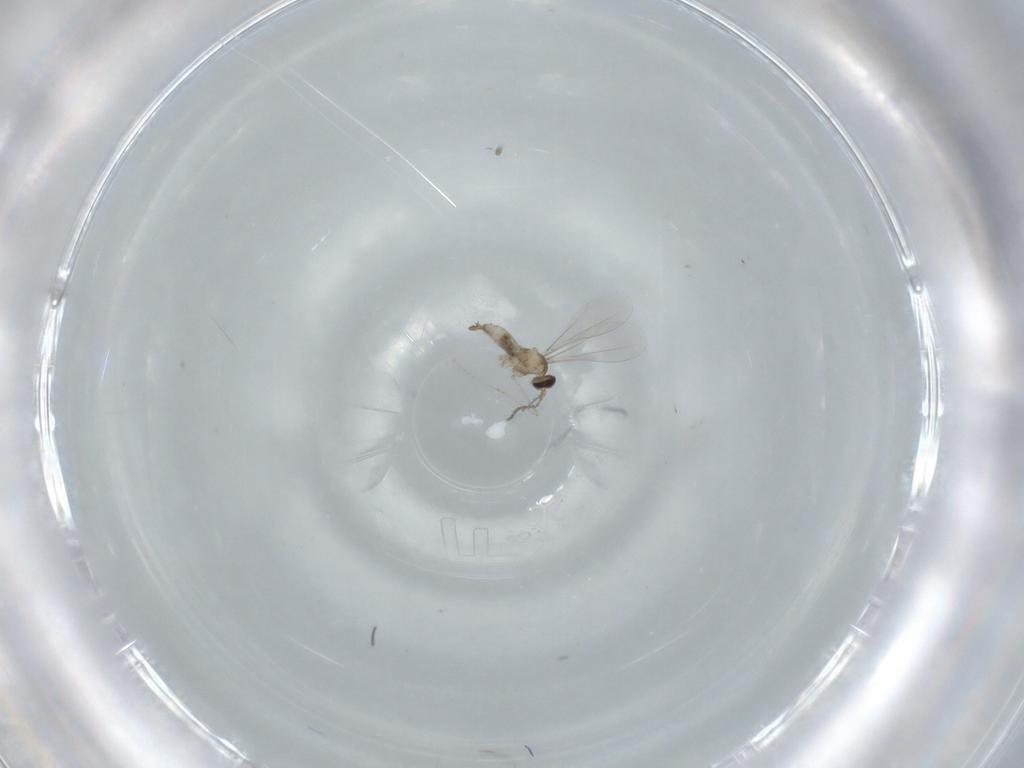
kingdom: Animalia
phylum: Arthropoda
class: Insecta
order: Diptera
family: Cecidomyiidae
